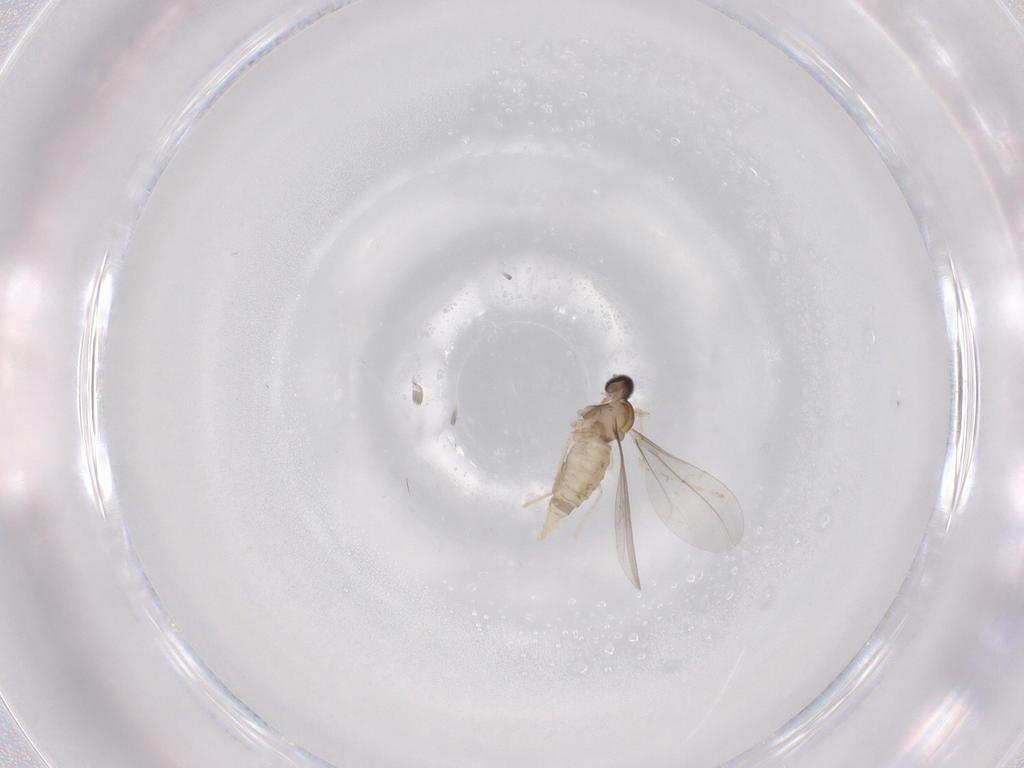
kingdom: Animalia
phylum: Arthropoda
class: Insecta
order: Diptera
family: Cecidomyiidae
